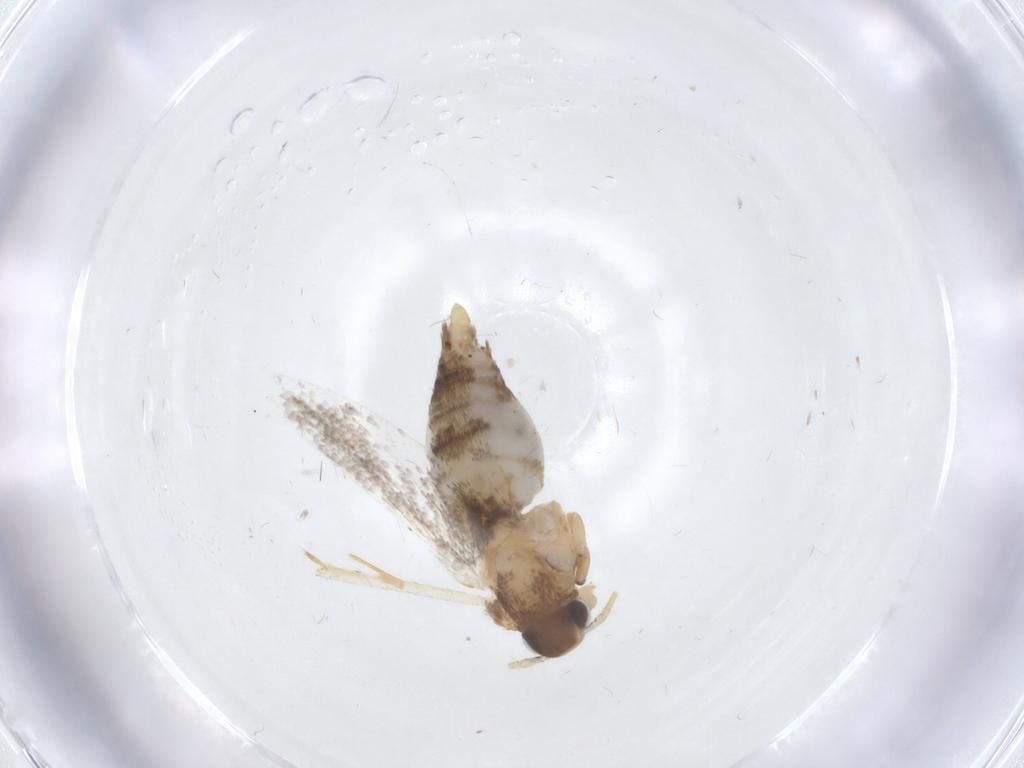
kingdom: Animalia
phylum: Arthropoda
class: Insecta
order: Lepidoptera
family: Oecophoridae
